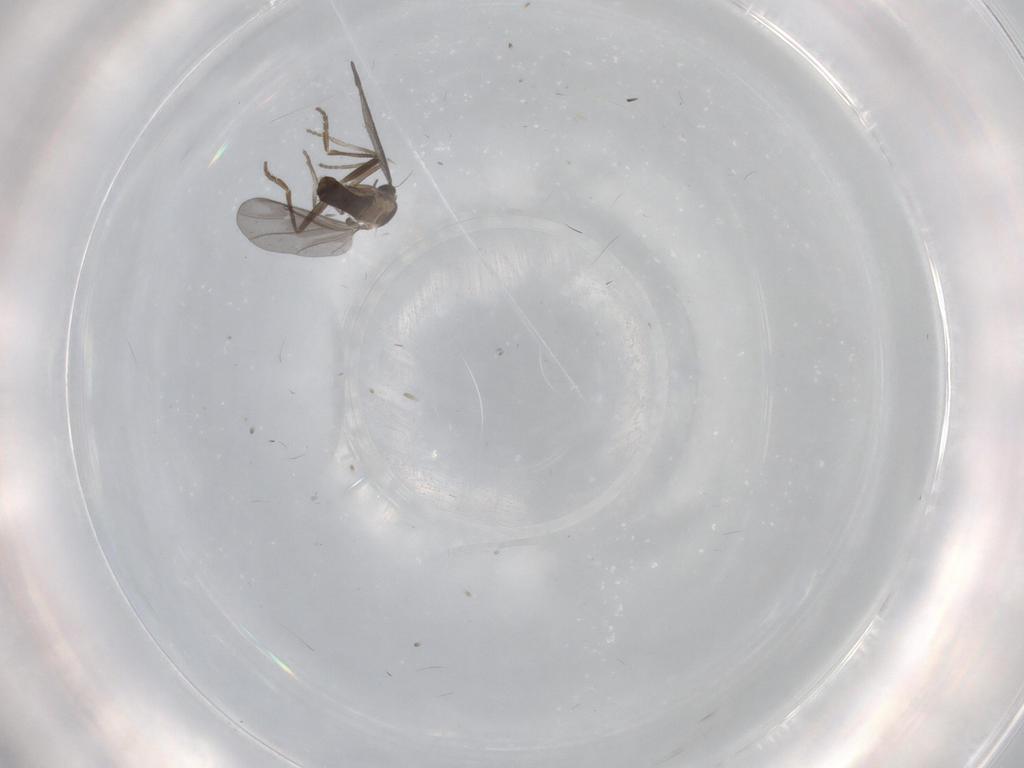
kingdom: Animalia
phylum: Arthropoda
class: Insecta
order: Diptera
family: Phoridae
